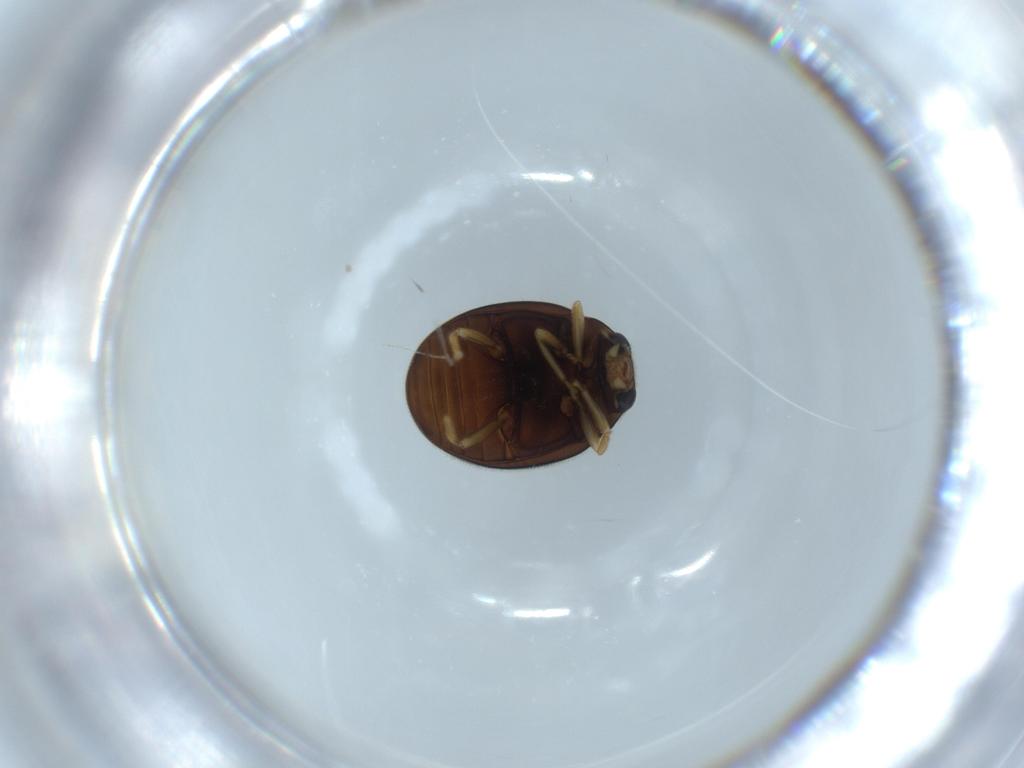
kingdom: Animalia
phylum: Arthropoda
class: Insecta
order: Coleoptera
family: Coccinellidae
